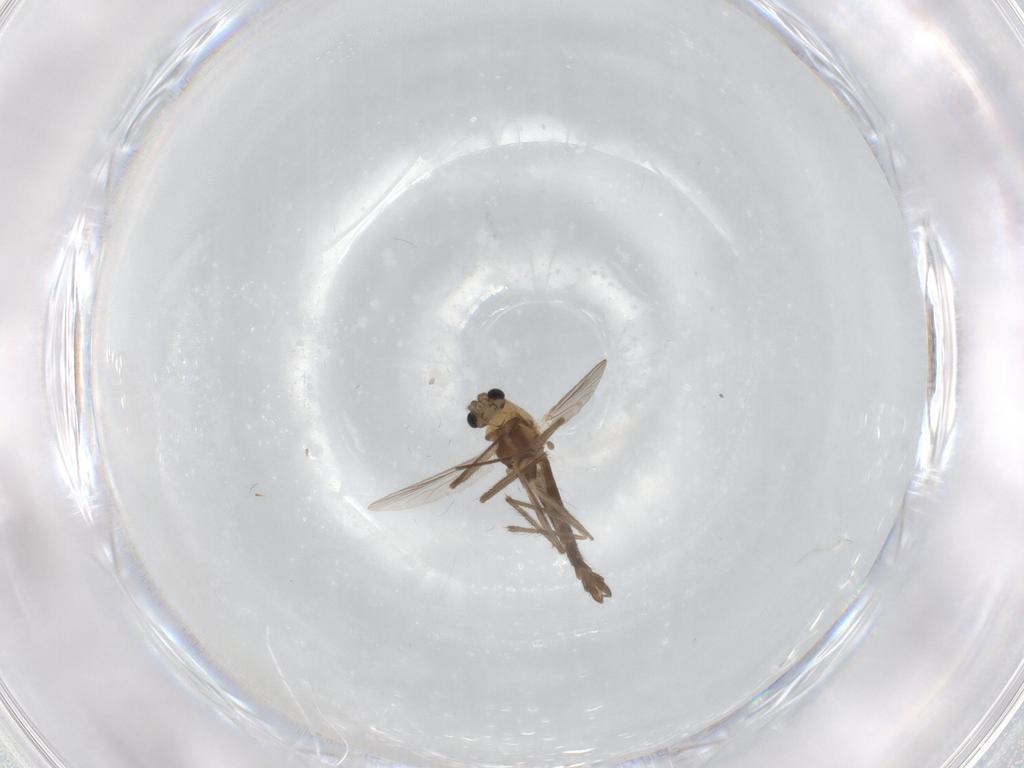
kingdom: Animalia
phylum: Arthropoda
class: Insecta
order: Diptera
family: Chironomidae
